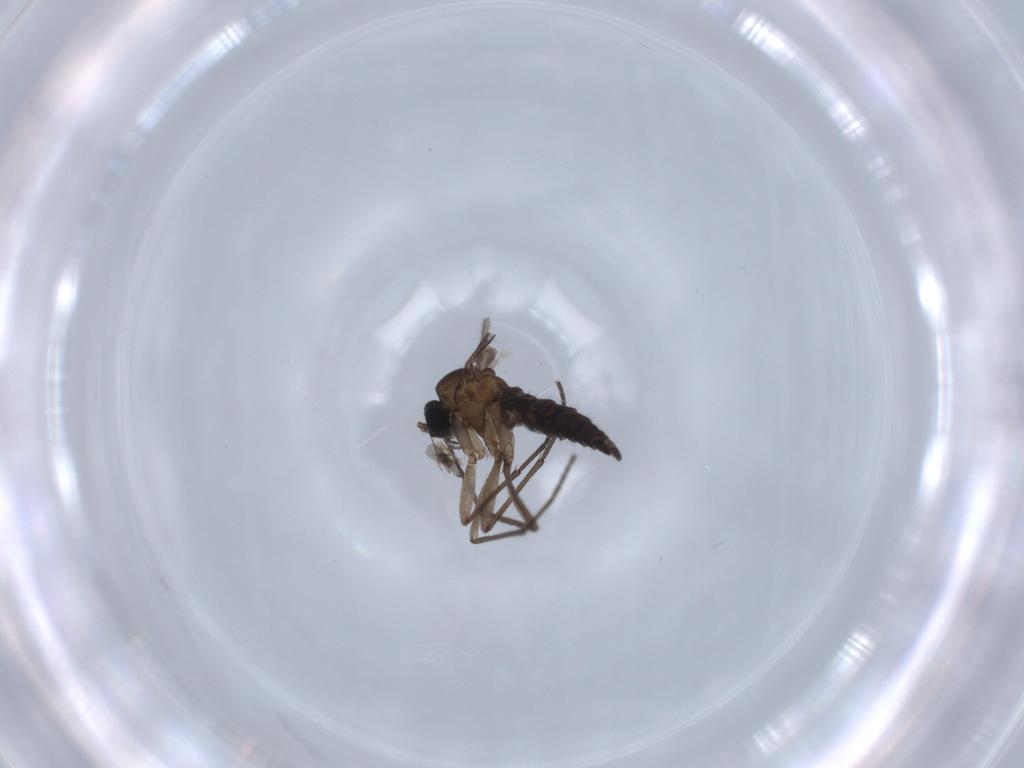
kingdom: Animalia
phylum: Arthropoda
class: Insecta
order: Diptera
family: Sciaridae
